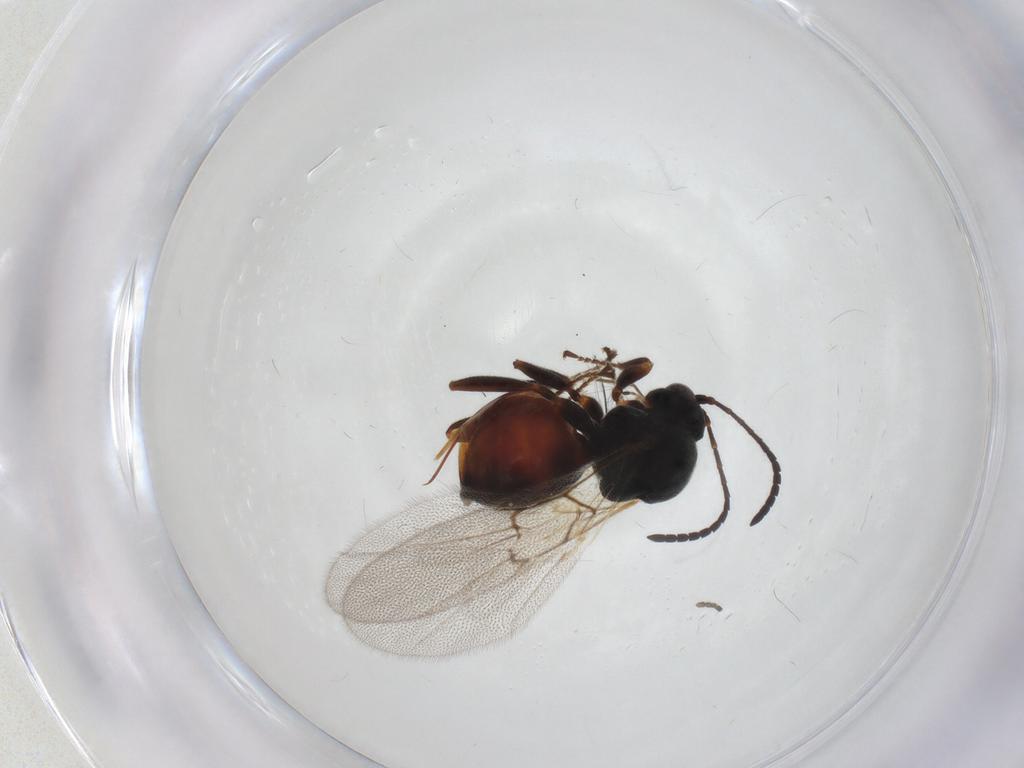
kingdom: Animalia
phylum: Arthropoda
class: Insecta
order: Hymenoptera
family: Cynipidae
